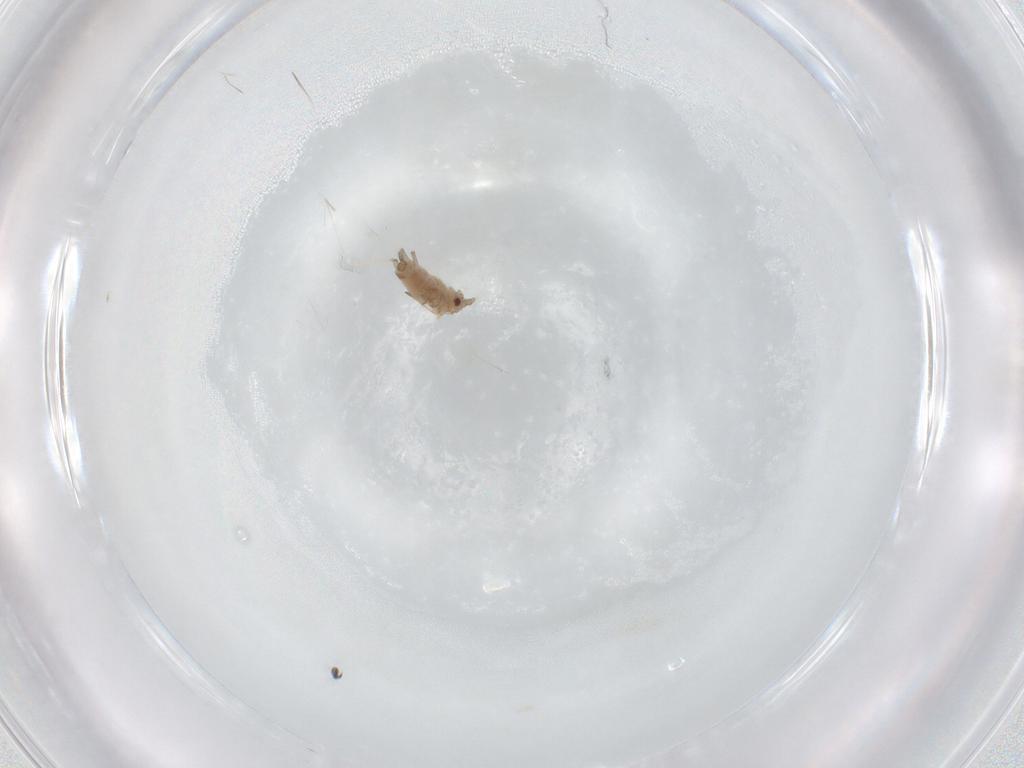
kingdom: Animalia
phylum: Arthropoda
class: Insecta
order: Hemiptera
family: Aphididae
